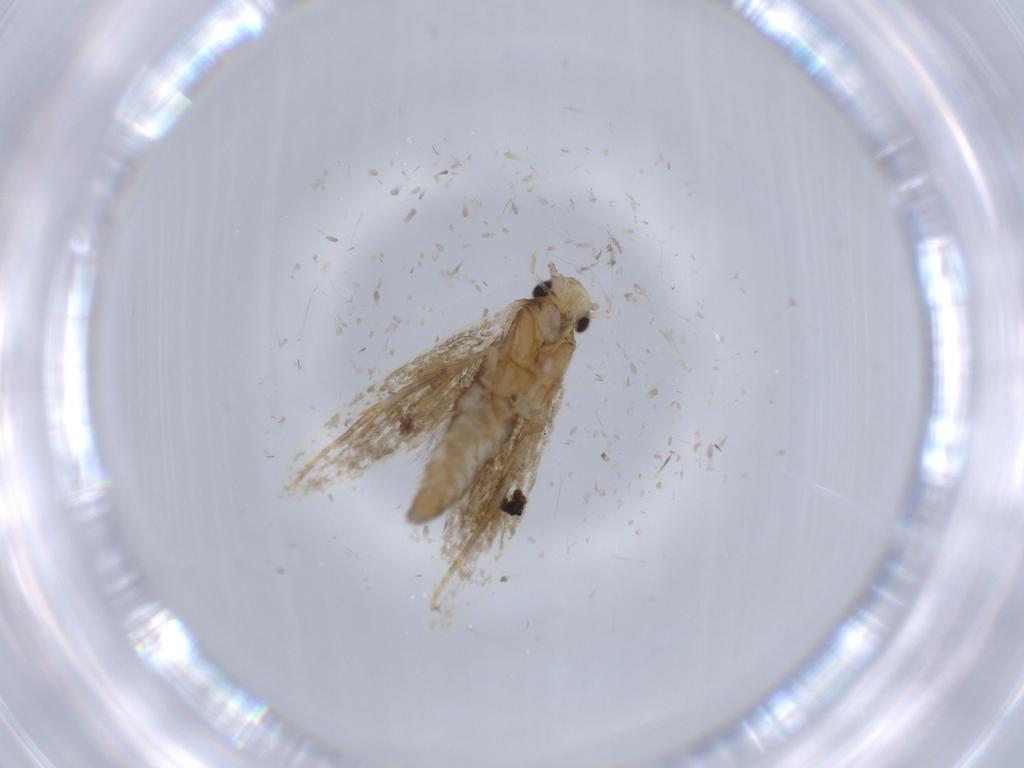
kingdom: Animalia
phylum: Arthropoda
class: Insecta
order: Lepidoptera
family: Tineidae
